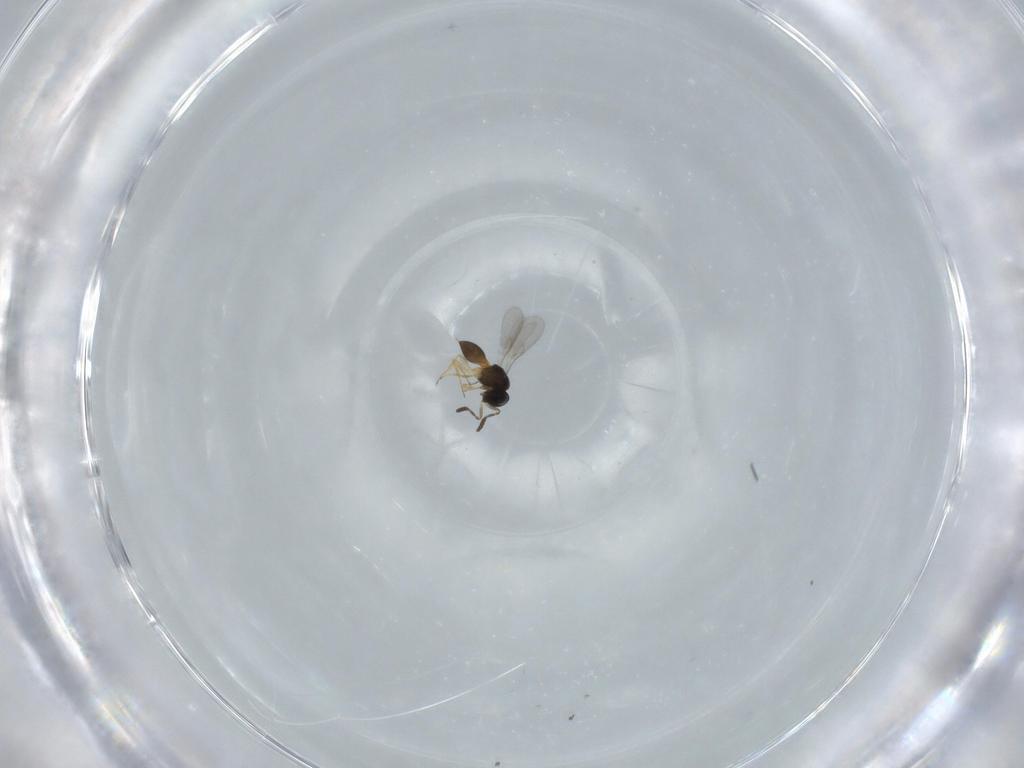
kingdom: Animalia
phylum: Arthropoda
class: Insecta
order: Hymenoptera
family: Scelionidae
